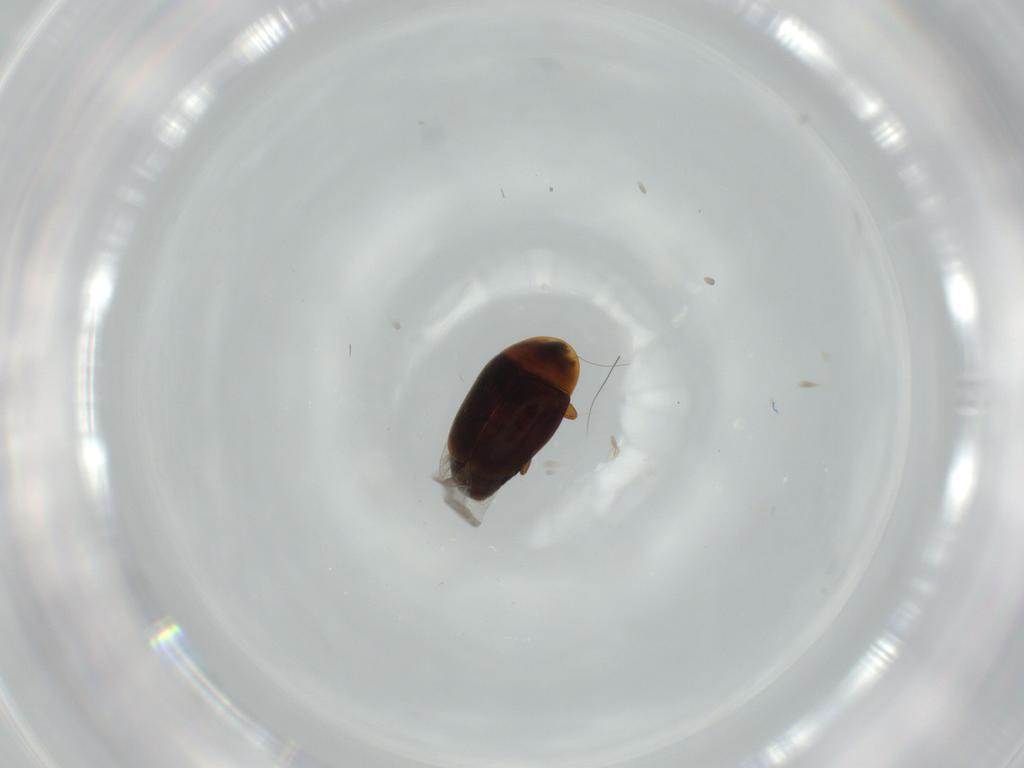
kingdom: Animalia
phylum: Arthropoda
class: Insecta
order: Coleoptera
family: Corylophidae
